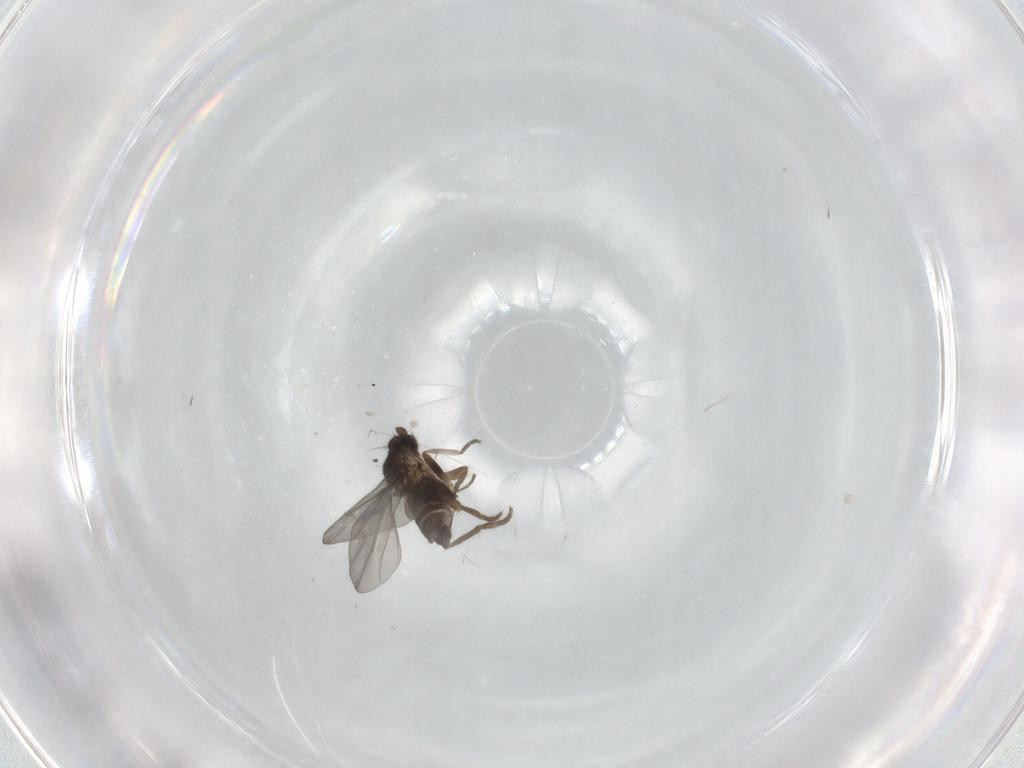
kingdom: Animalia
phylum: Arthropoda
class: Insecta
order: Diptera
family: Phoridae
